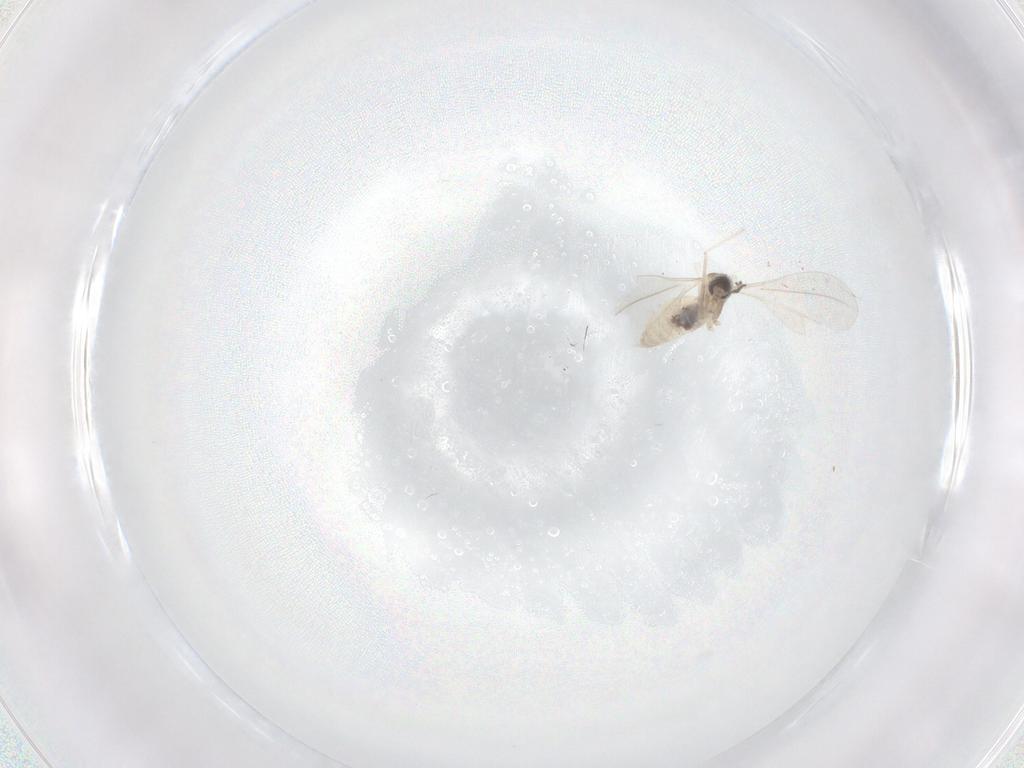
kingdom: Animalia
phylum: Arthropoda
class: Insecta
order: Diptera
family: Cecidomyiidae
